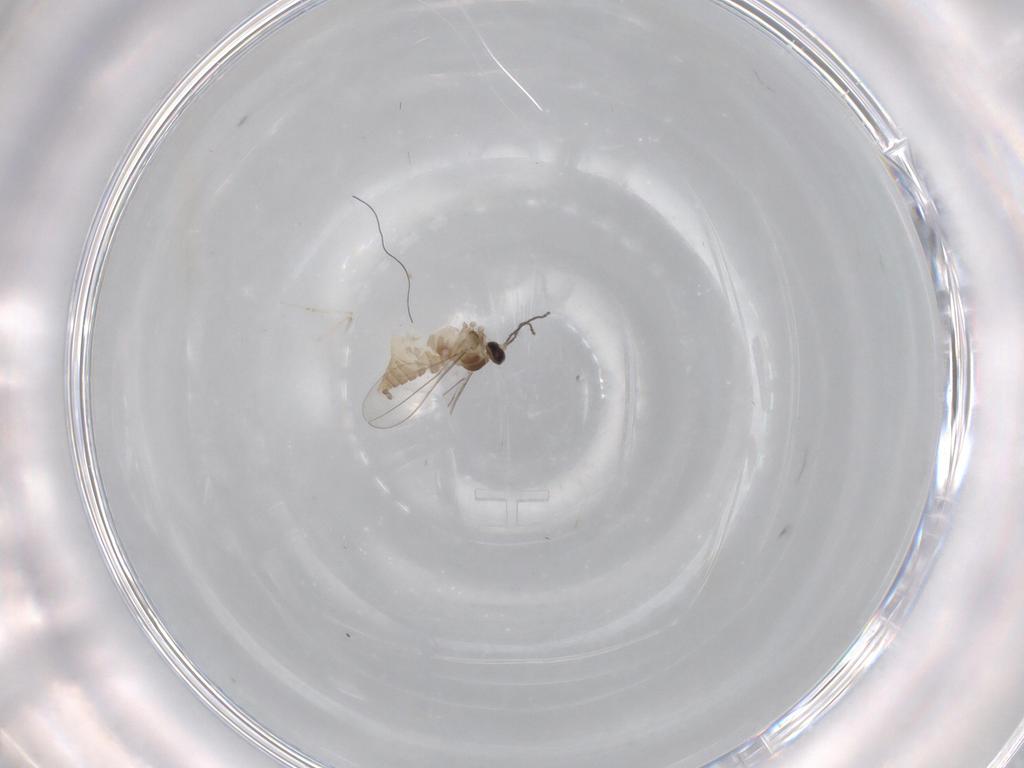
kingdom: Animalia
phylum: Arthropoda
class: Insecta
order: Diptera
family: Cecidomyiidae
